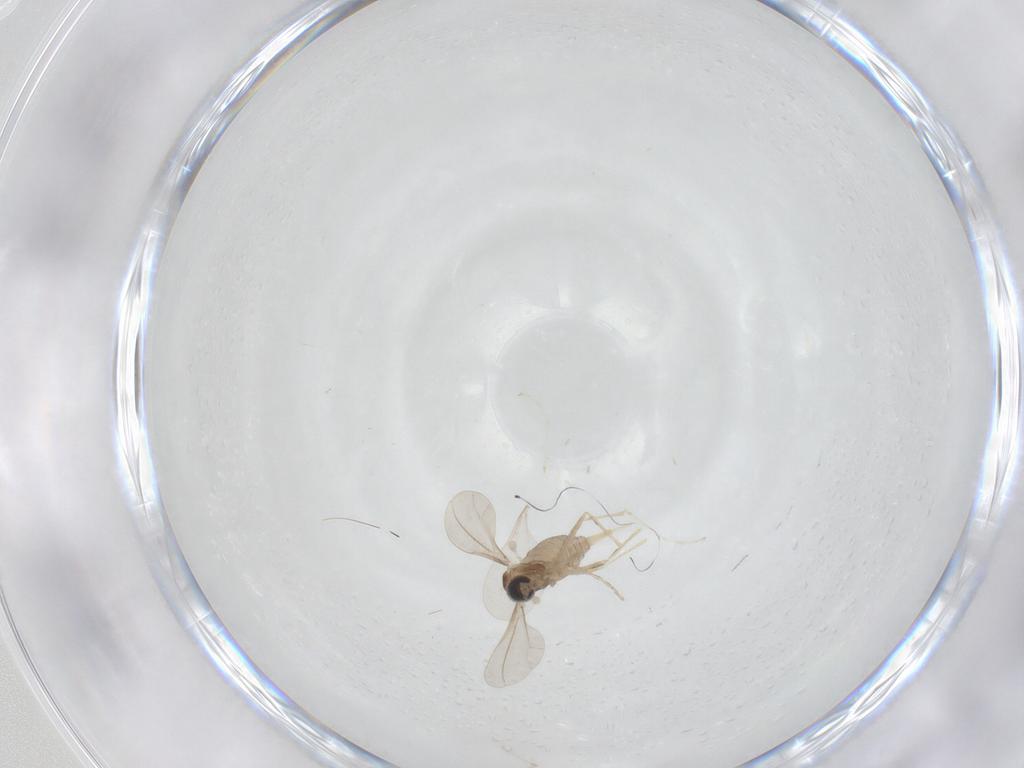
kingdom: Animalia
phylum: Arthropoda
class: Insecta
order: Diptera
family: Cecidomyiidae
